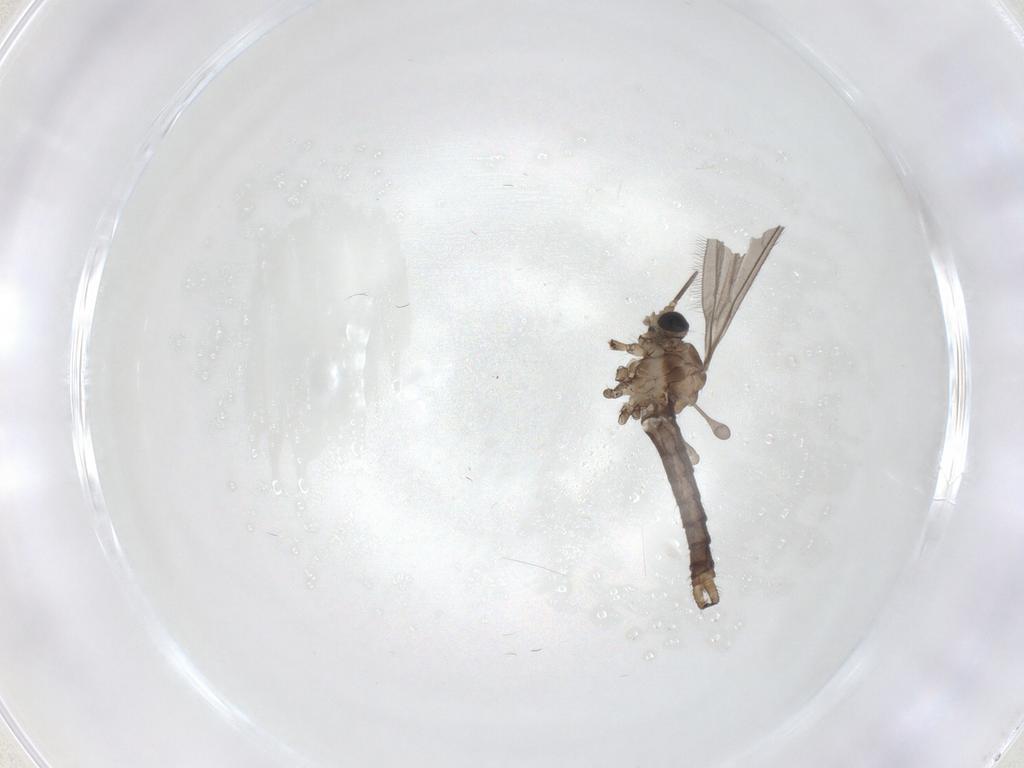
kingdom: Animalia
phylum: Arthropoda
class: Insecta
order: Diptera
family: Limoniidae
